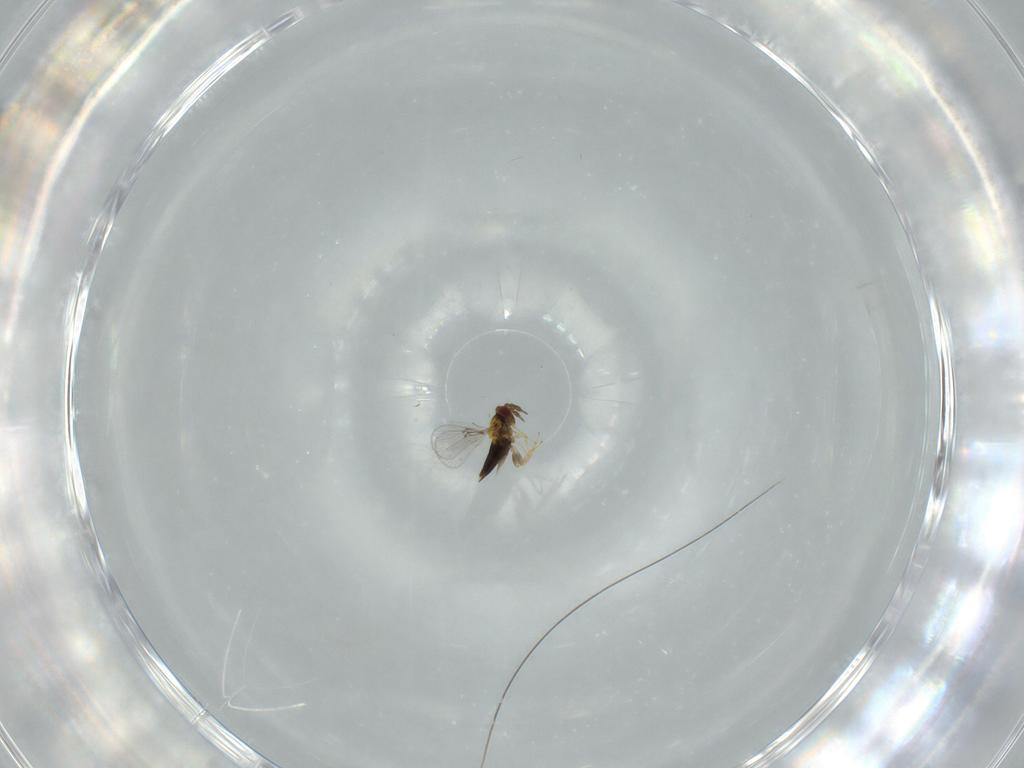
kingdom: Animalia
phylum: Arthropoda
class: Insecta
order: Hymenoptera
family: Trichogrammatidae
